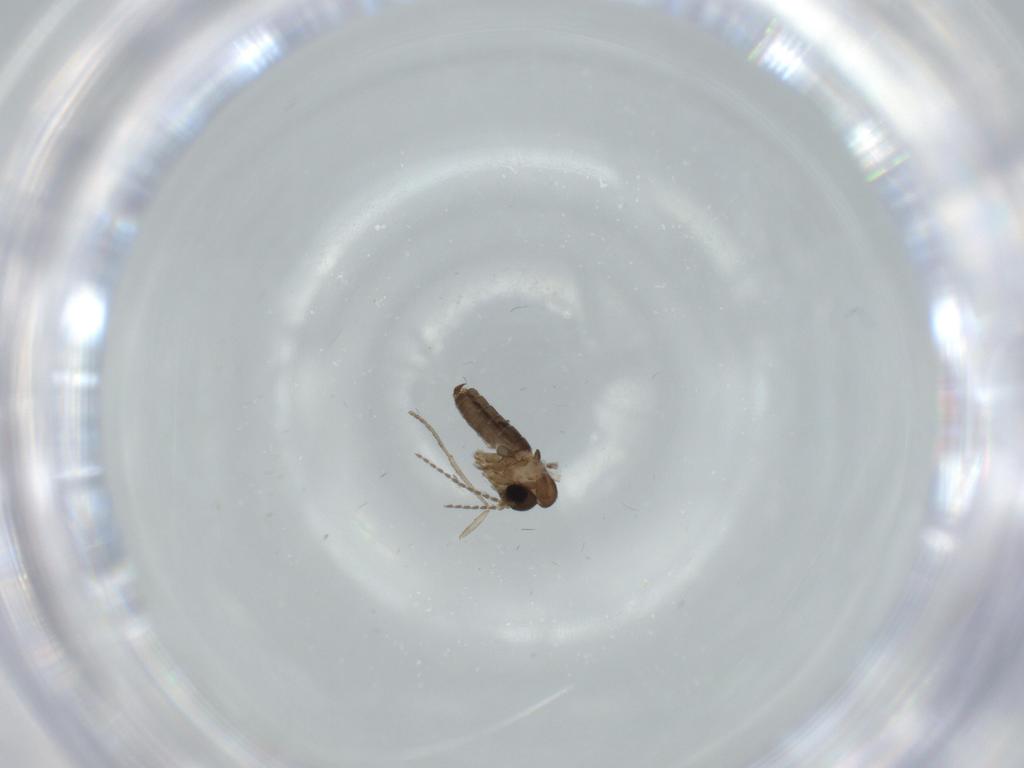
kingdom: Animalia
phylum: Arthropoda
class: Insecta
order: Diptera
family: Psychodidae
